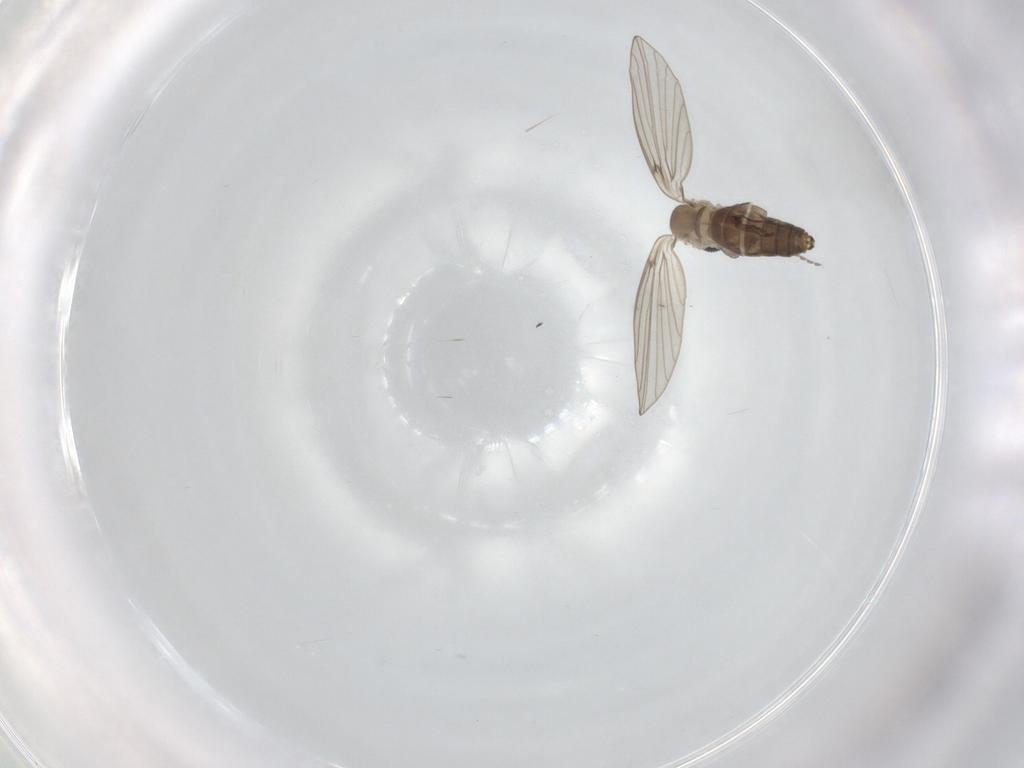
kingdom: Animalia
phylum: Arthropoda
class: Insecta
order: Diptera
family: Psychodidae
